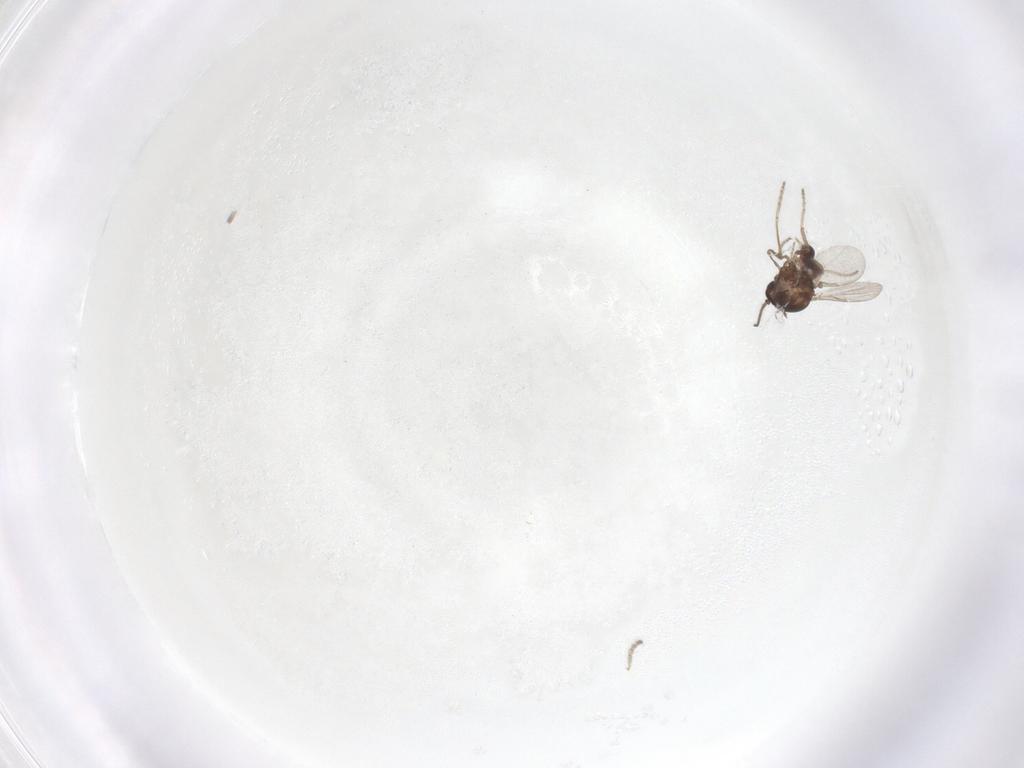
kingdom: Animalia
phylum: Arthropoda
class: Insecta
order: Diptera
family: Ceratopogonidae
